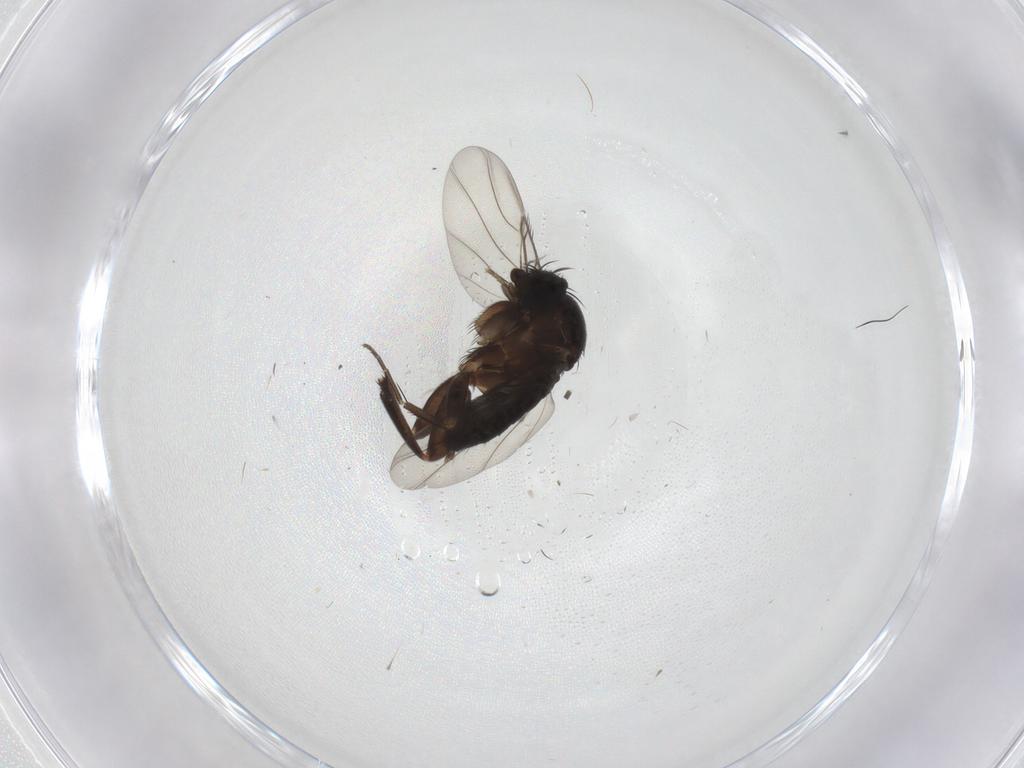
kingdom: Animalia
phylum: Arthropoda
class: Insecta
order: Diptera
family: Phoridae
